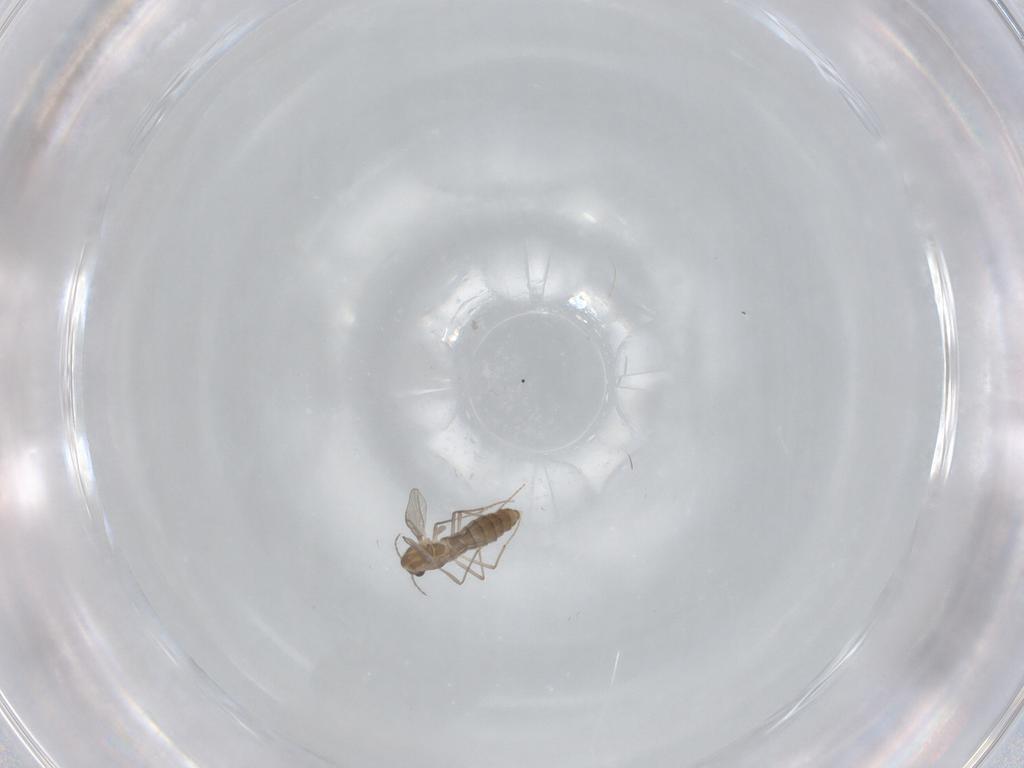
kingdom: Animalia
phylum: Arthropoda
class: Insecta
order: Diptera
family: Chironomidae
